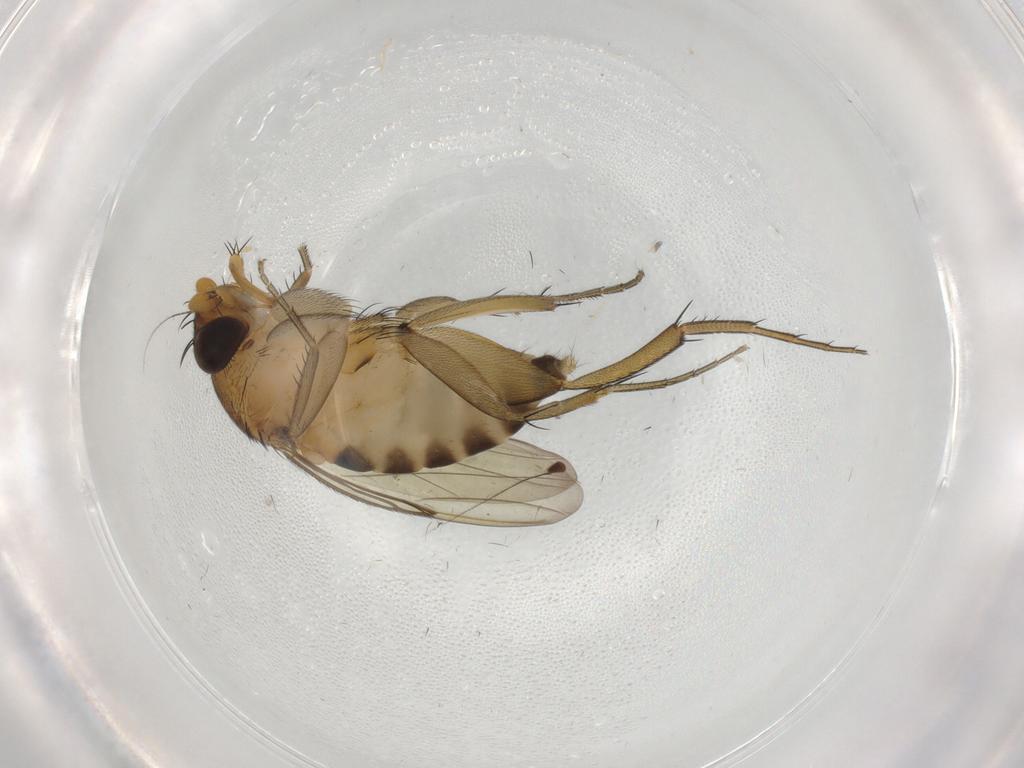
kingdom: Animalia
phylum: Arthropoda
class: Insecta
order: Diptera
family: Phoridae
